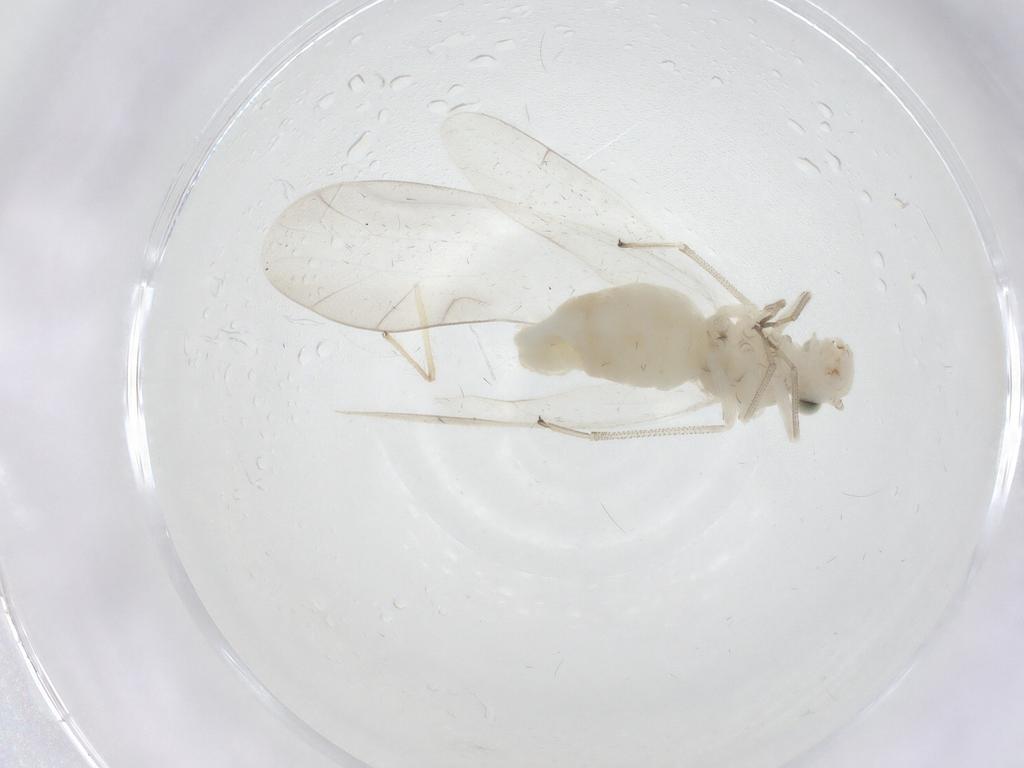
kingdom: Animalia
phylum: Arthropoda
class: Insecta
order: Psocodea
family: Caeciliusidae
